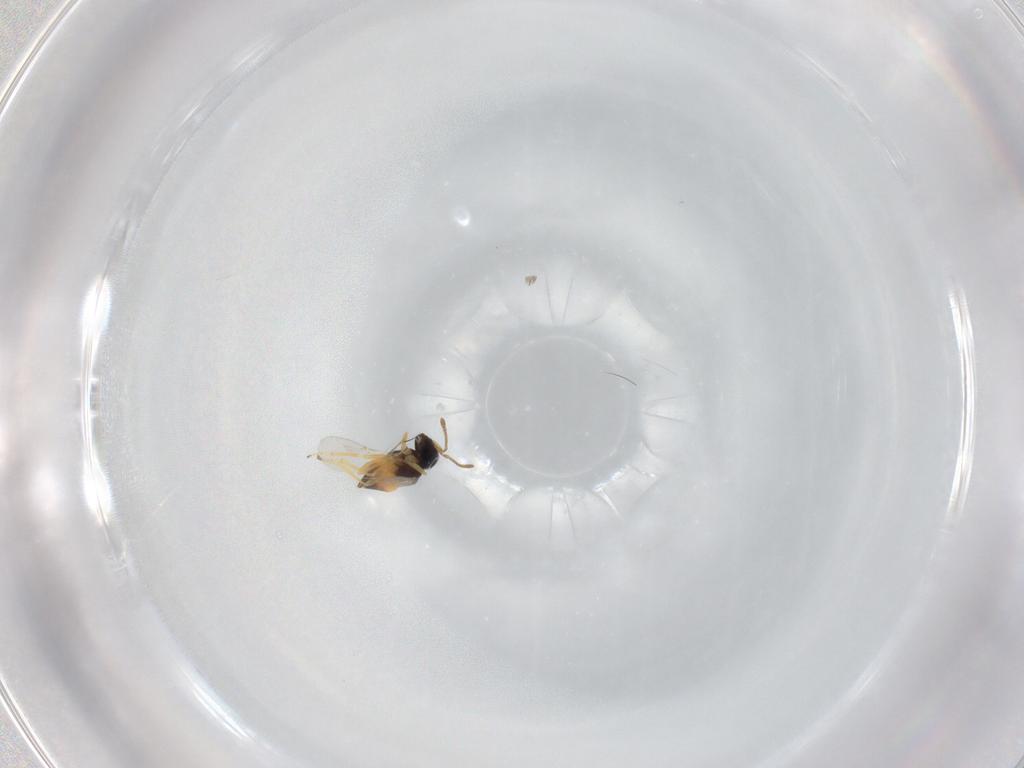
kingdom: Animalia
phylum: Arthropoda
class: Insecta
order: Hymenoptera
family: Encyrtidae
